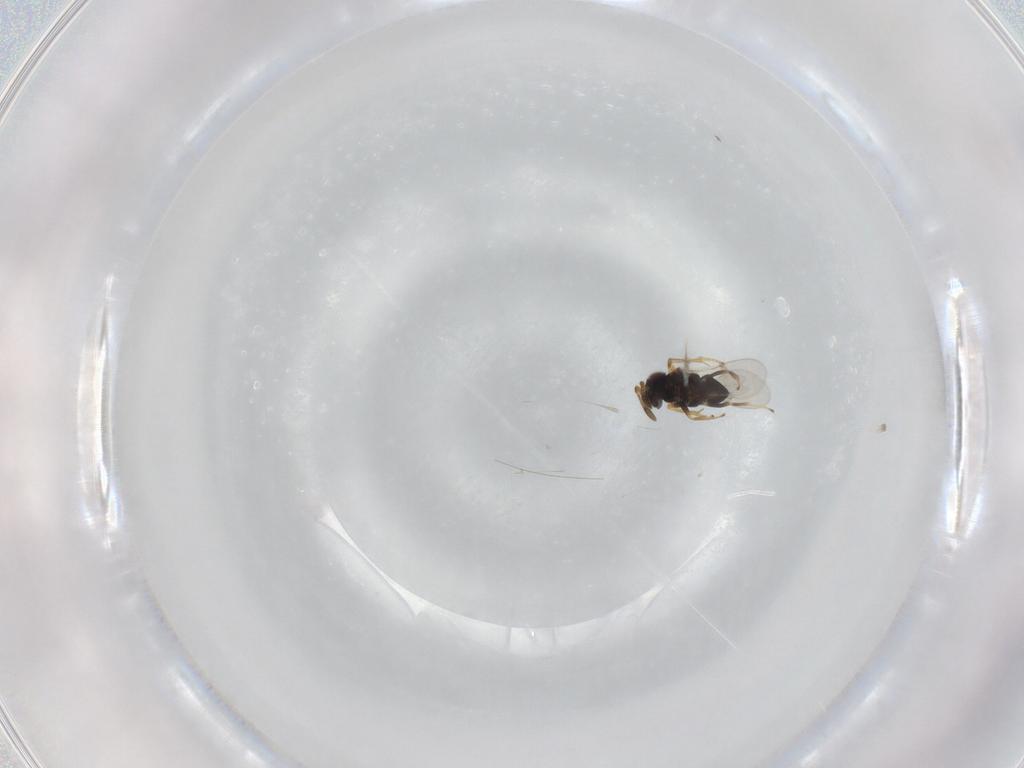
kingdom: Animalia
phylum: Arthropoda
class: Insecta
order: Hymenoptera
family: Encyrtidae
